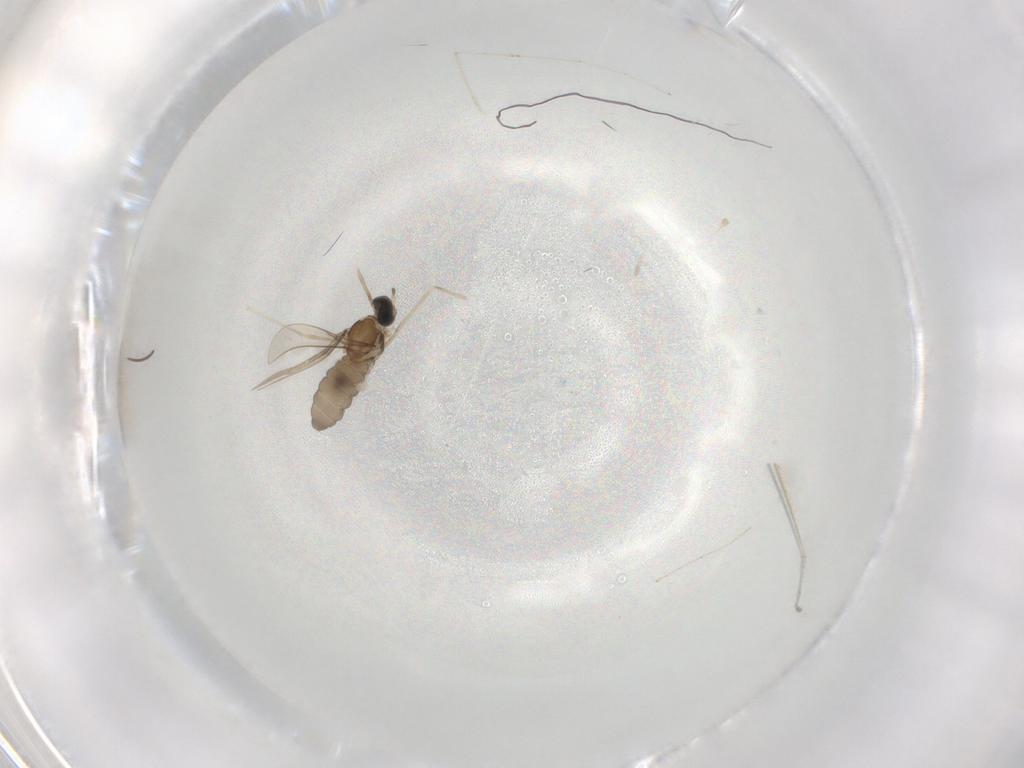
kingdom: Animalia
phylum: Arthropoda
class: Insecta
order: Diptera
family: Cecidomyiidae
